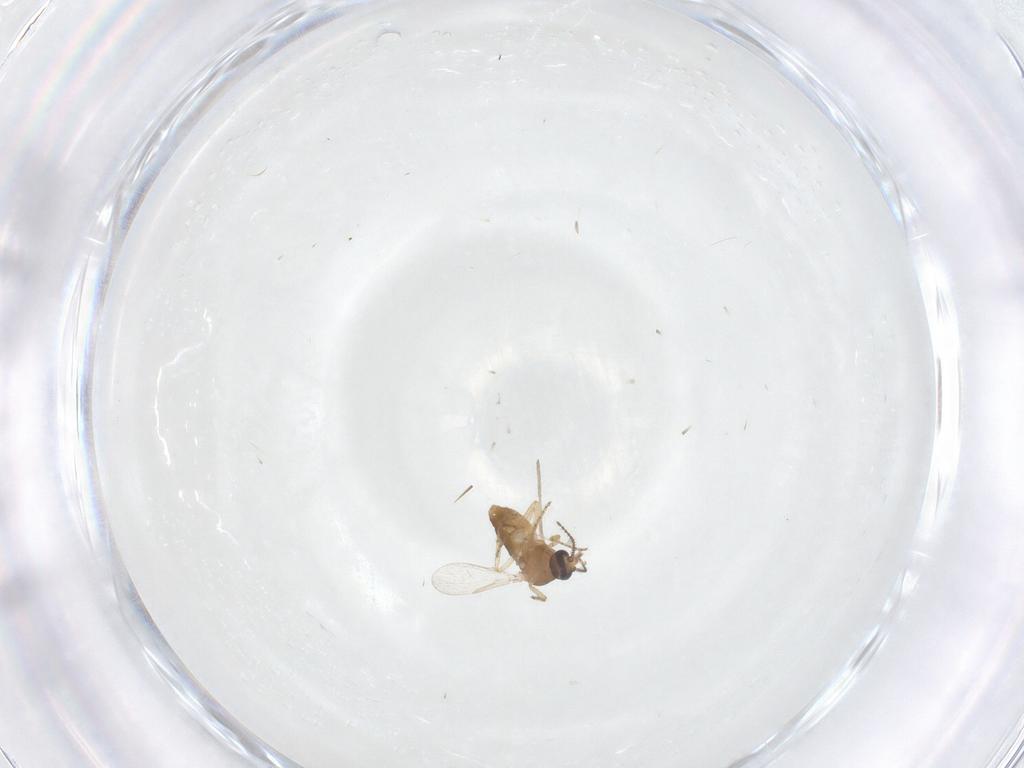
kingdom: Animalia
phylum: Arthropoda
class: Insecta
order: Diptera
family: Ceratopogonidae
